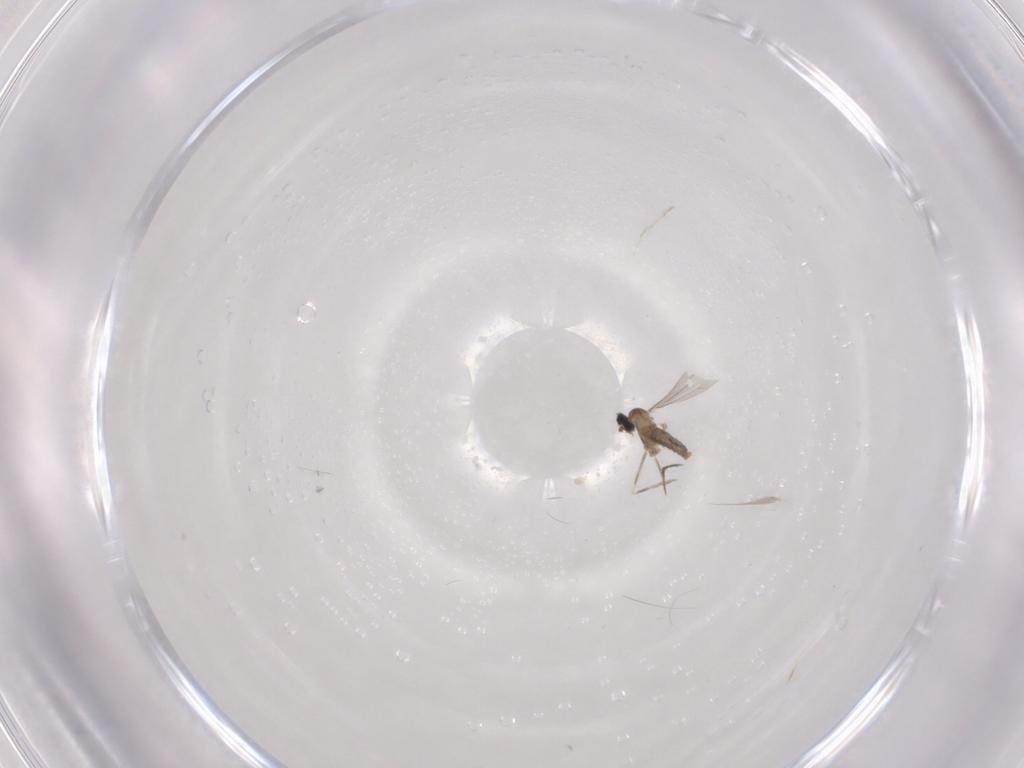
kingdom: Animalia
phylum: Arthropoda
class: Insecta
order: Diptera
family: Cecidomyiidae
